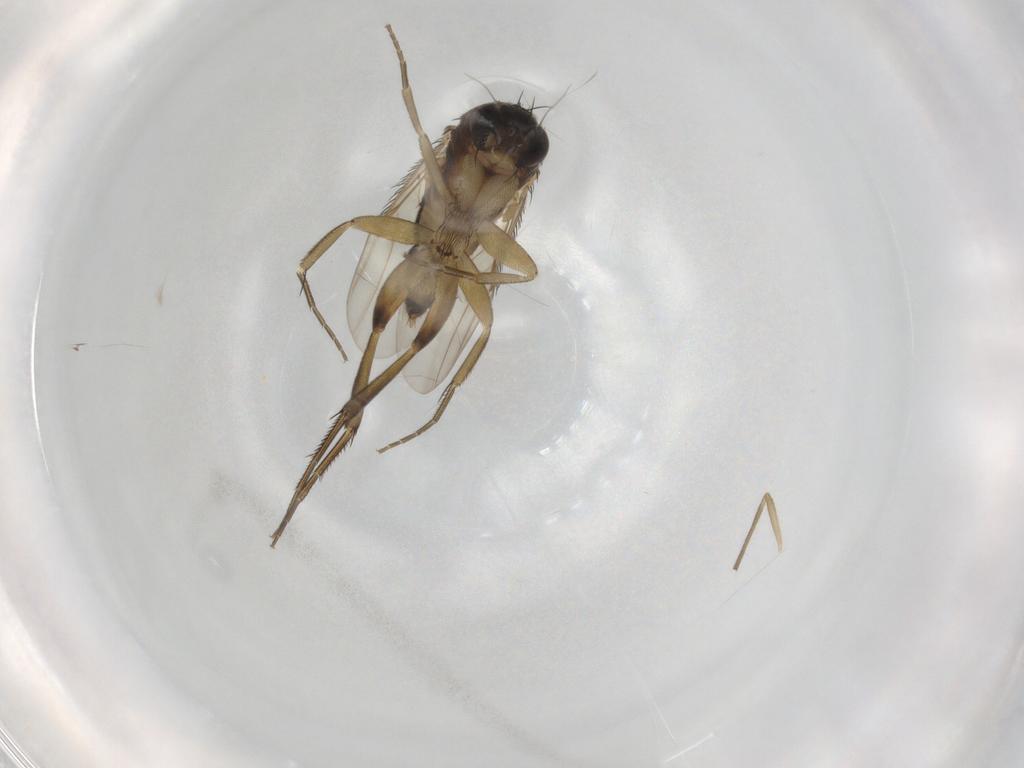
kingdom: Animalia
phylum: Arthropoda
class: Insecta
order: Diptera
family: Phoridae
